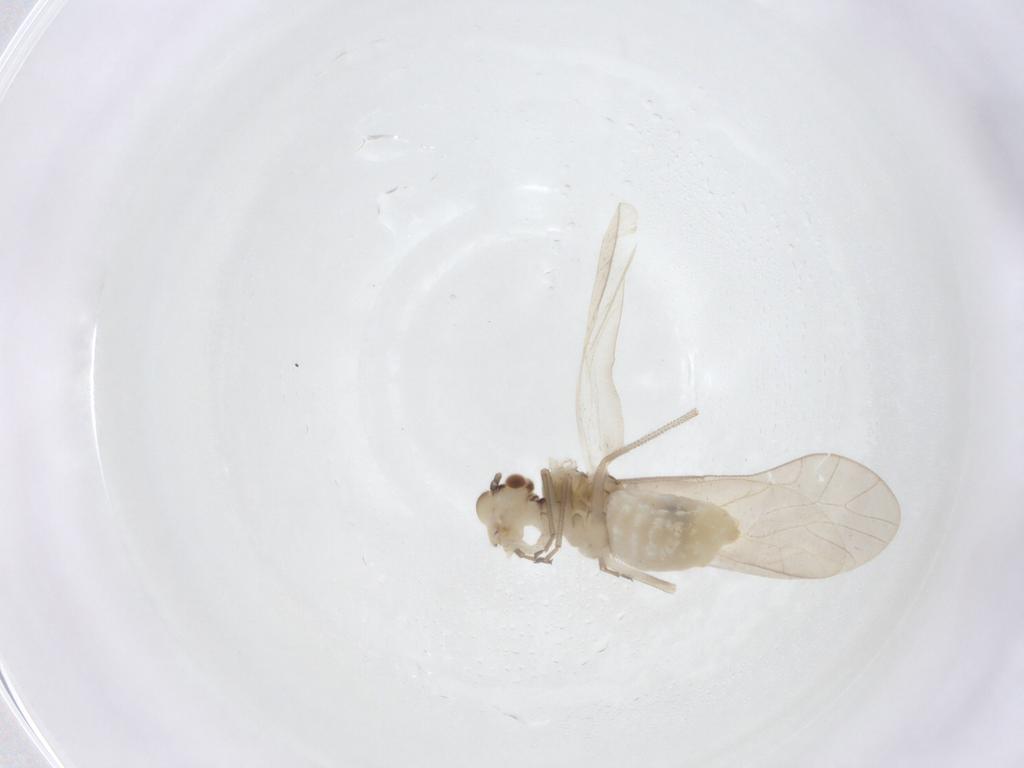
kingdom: Animalia
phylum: Arthropoda
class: Insecta
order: Psocodea
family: Caeciliusidae
